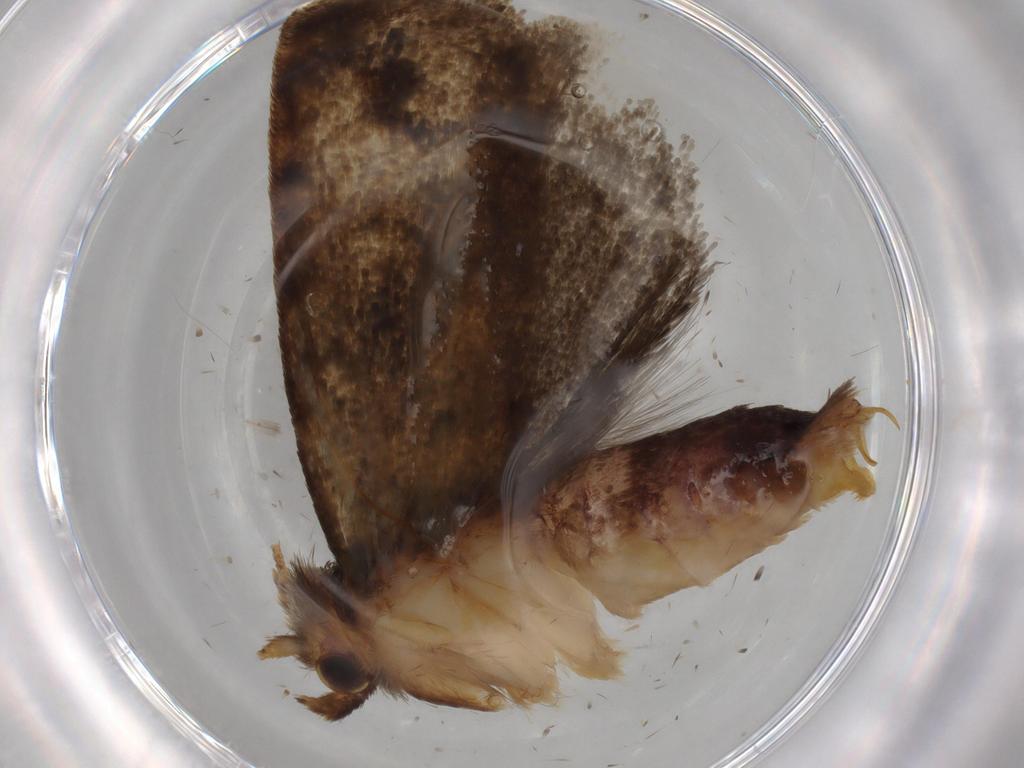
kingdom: Animalia
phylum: Arthropoda
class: Insecta
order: Lepidoptera
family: Tineidae
